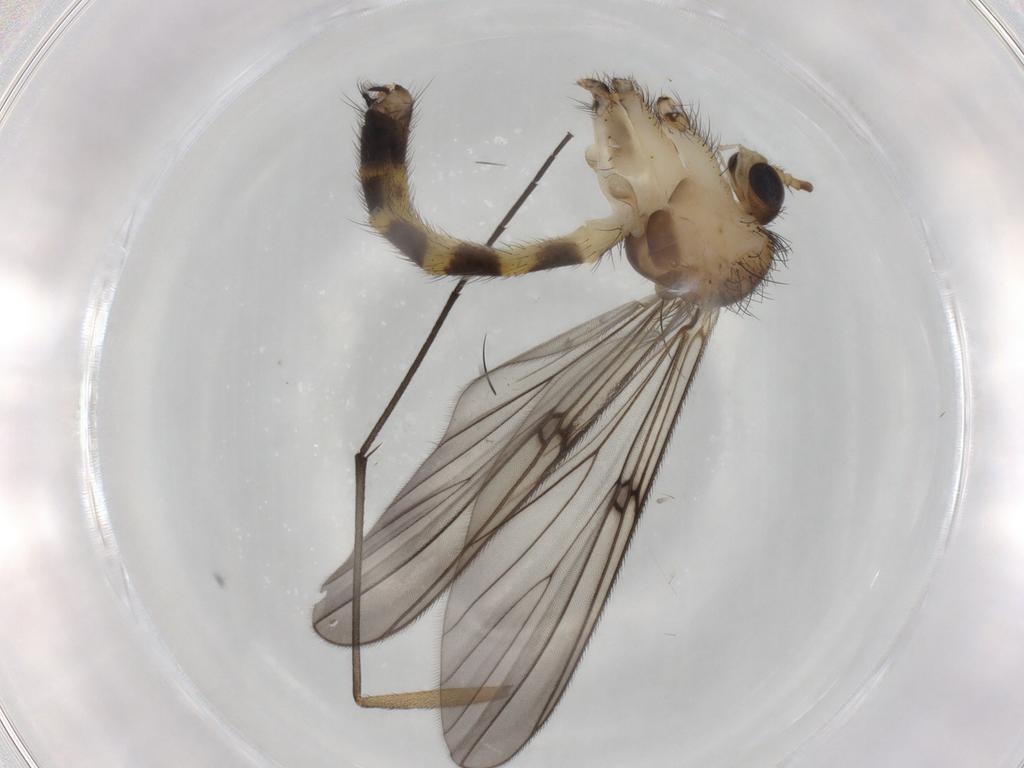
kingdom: Animalia
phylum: Arthropoda
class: Insecta
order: Diptera
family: Mycetophilidae
